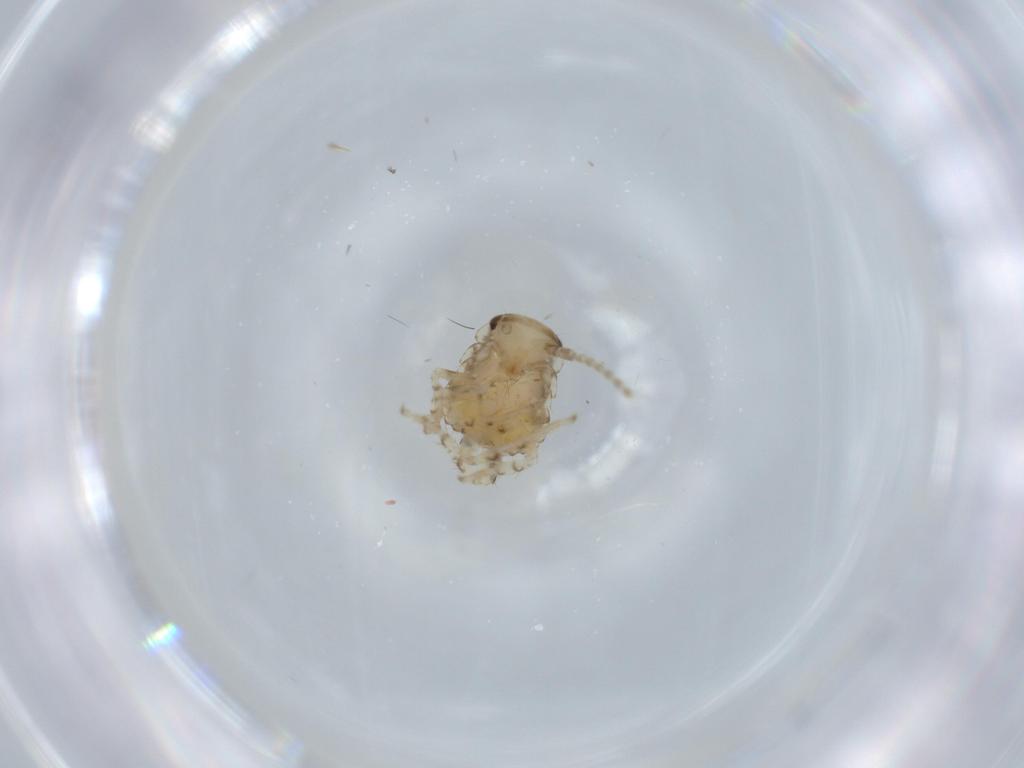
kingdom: Animalia
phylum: Arthropoda
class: Insecta
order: Blattodea
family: Ectobiidae
